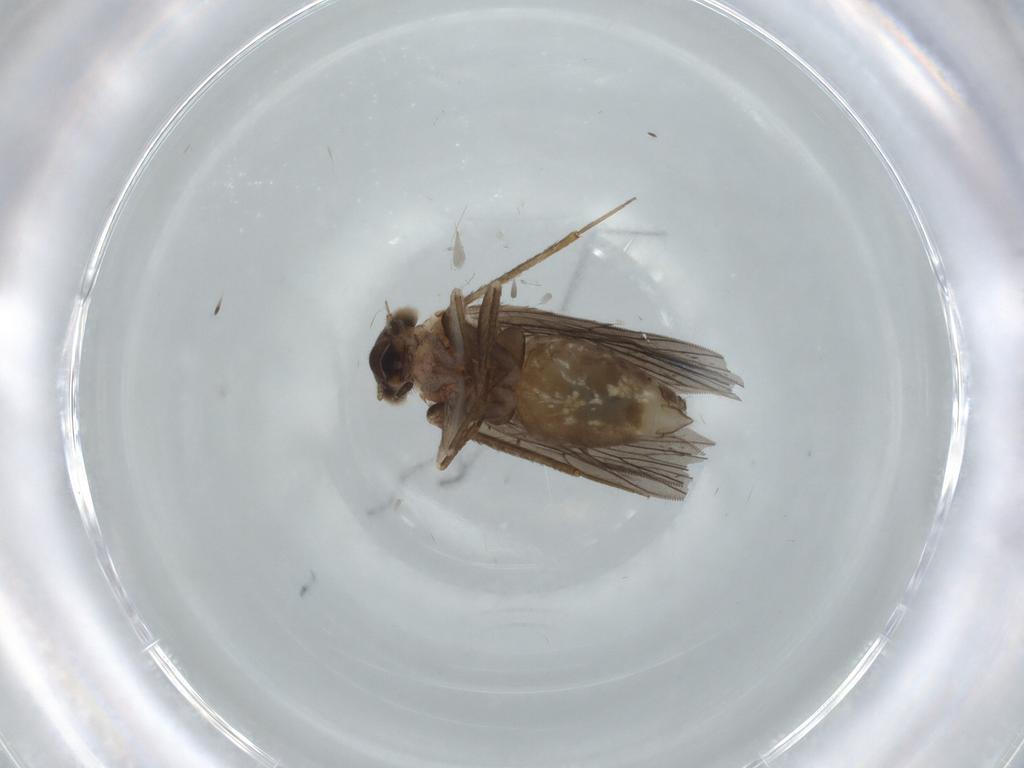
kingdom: Animalia
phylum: Arthropoda
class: Insecta
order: Psocodea
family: Lepidopsocidae
